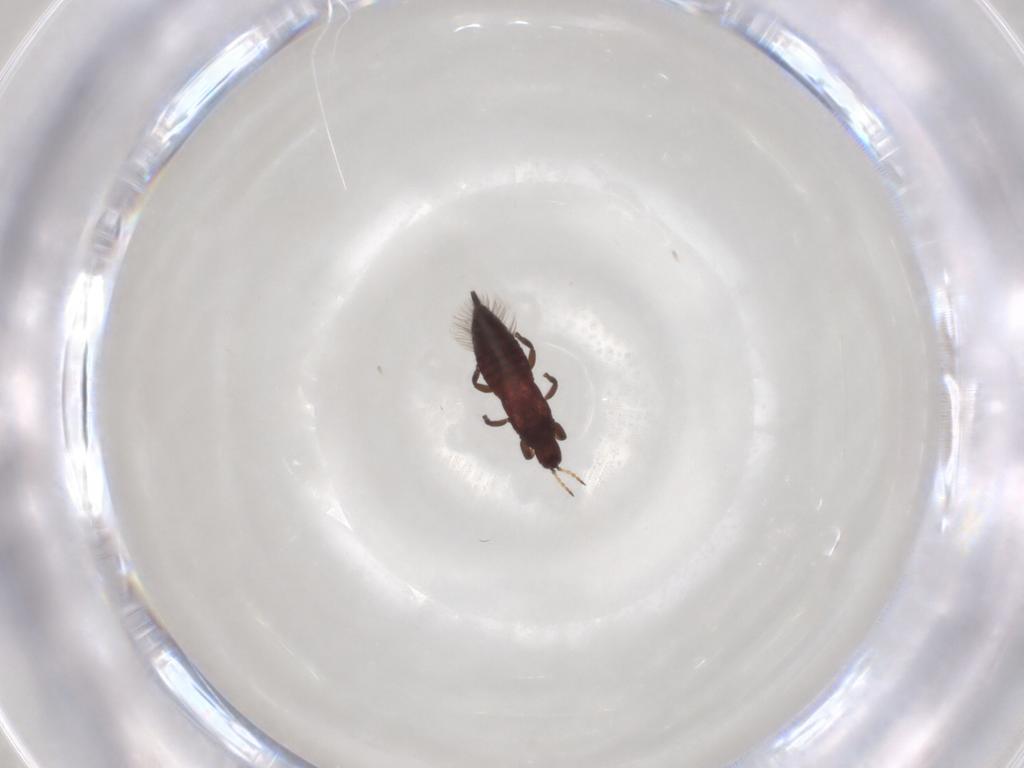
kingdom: Animalia
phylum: Arthropoda
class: Insecta
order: Thysanoptera
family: Phlaeothripidae
